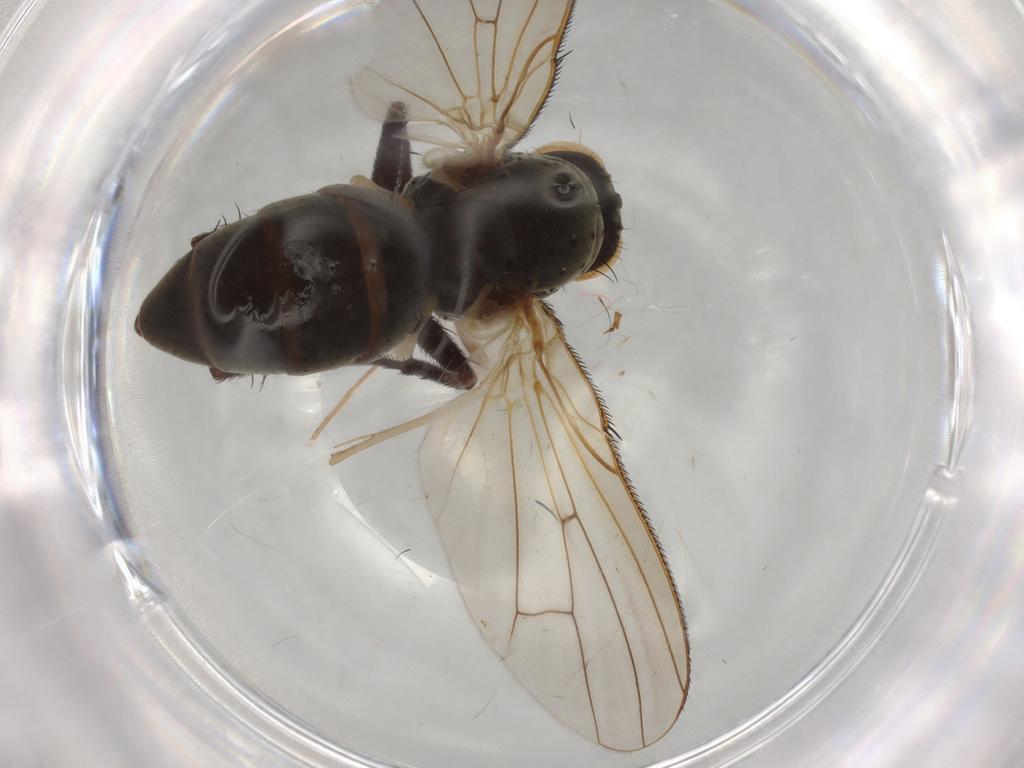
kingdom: Animalia
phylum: Arthropoda
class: Insecta
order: Diptera
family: Anthomyiidae
